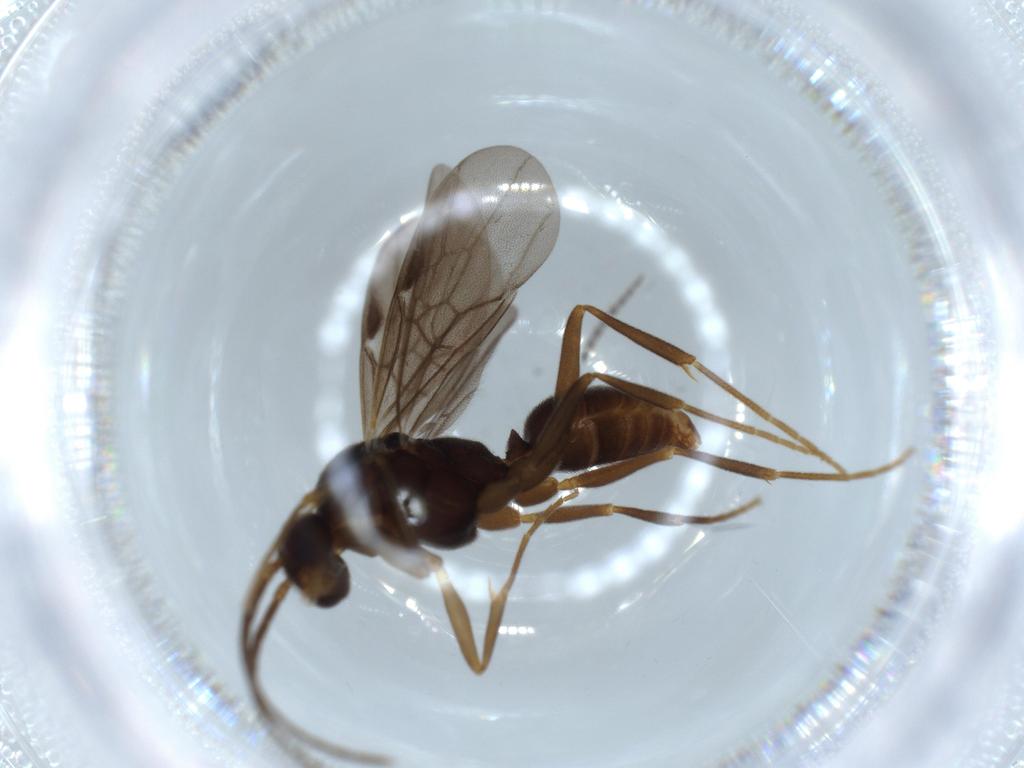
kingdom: Animalia
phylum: Arthropoda
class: Insecta
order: Hymenoptera
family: Formicidae
